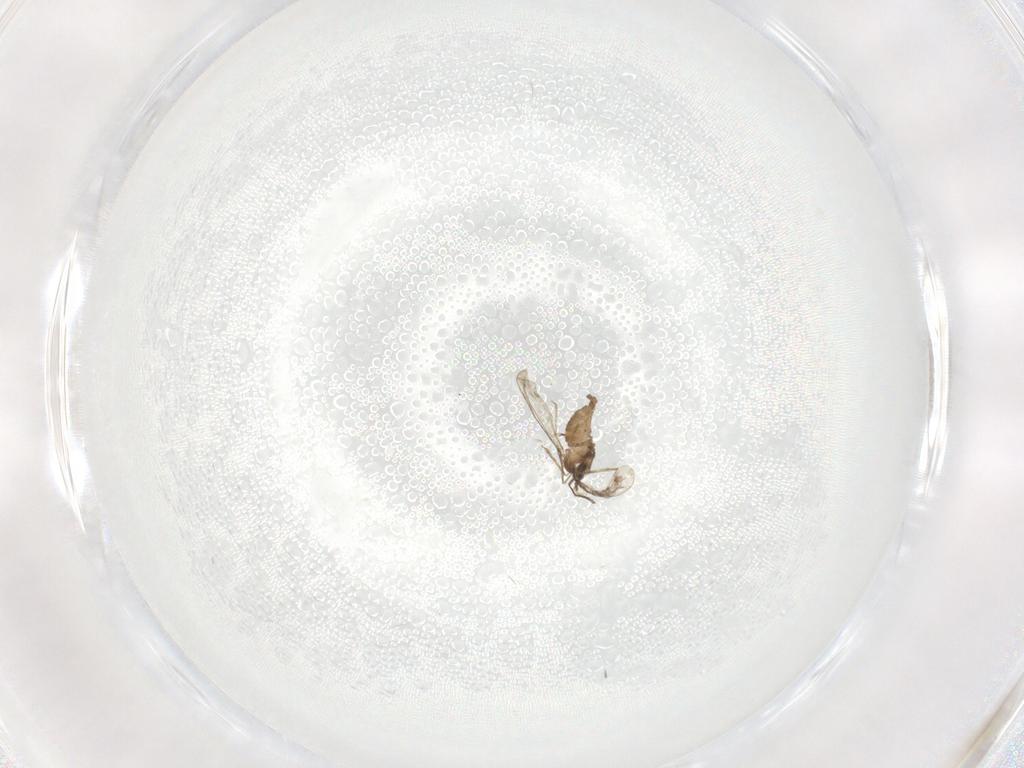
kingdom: Animalia
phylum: Arthropoda
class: Insecta
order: Diptera
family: Cecidomyiidae
